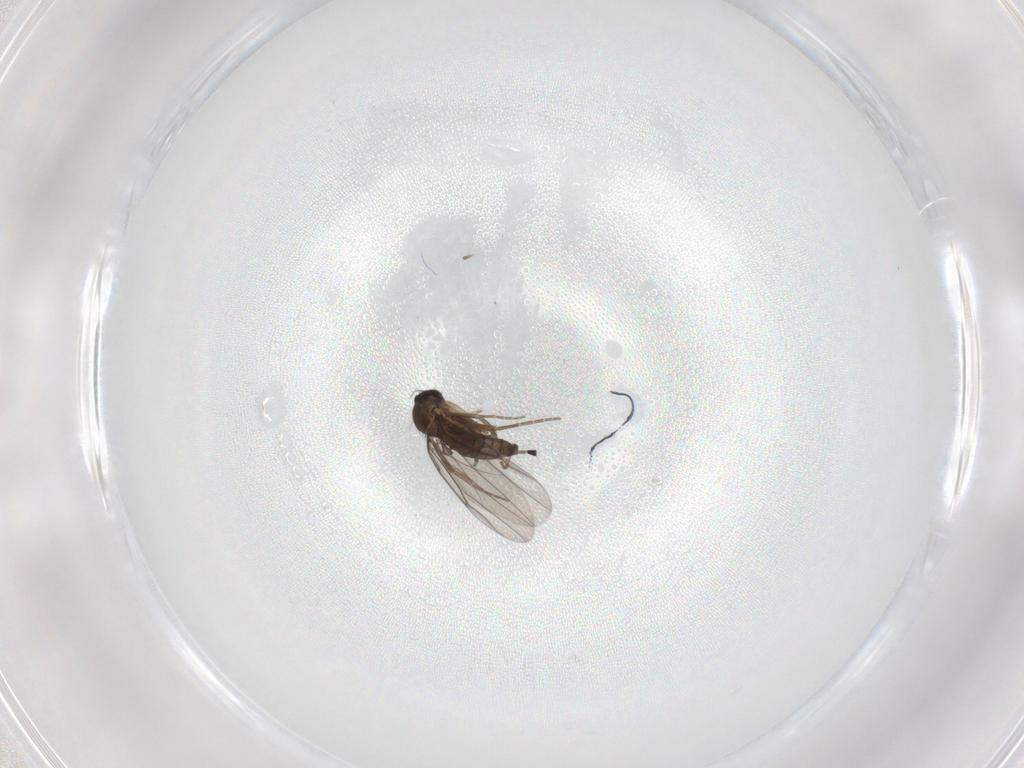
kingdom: Animalia
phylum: Arthropoda
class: Insecta
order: Diptera
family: Phoridae
